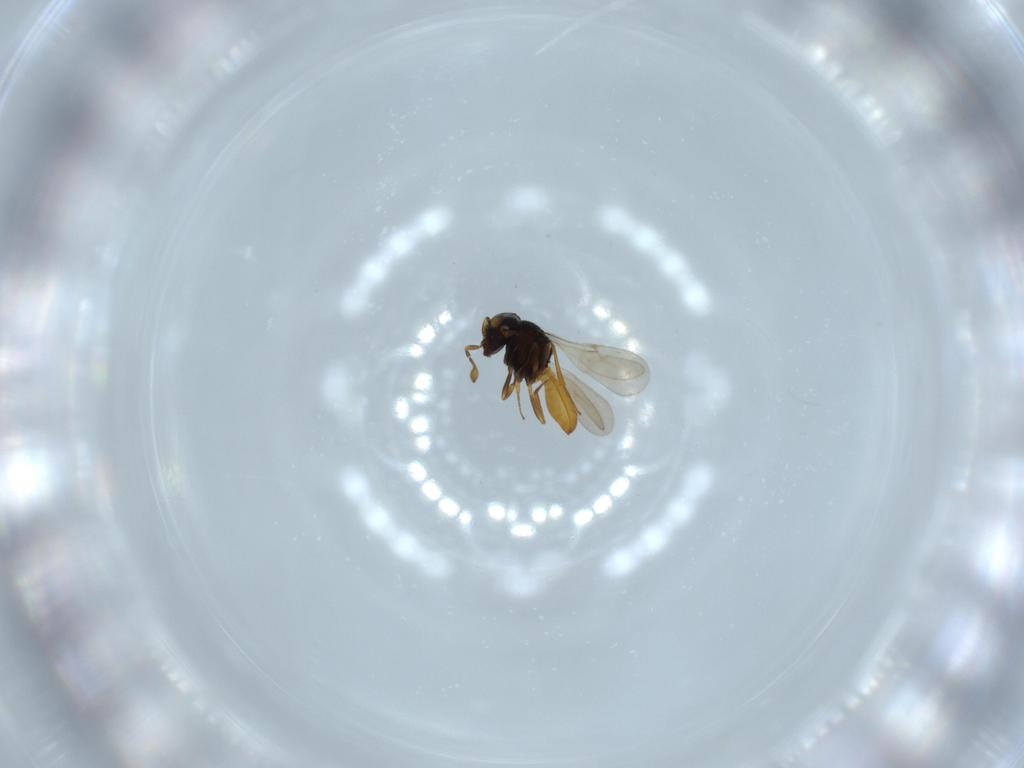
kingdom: Animalia
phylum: Arthropoda
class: Insecta
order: Hymenoptera
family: Scelionidae
